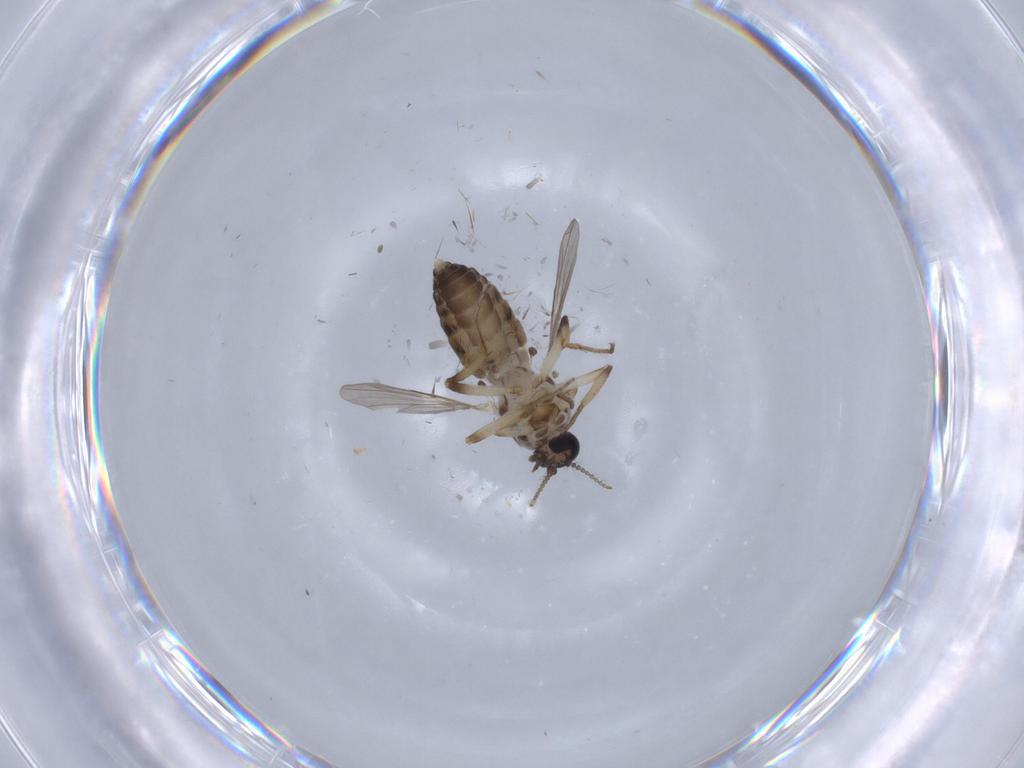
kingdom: Animalia
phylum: Arthropoda
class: Insecta
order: Diptera
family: Ceratopogonidae
